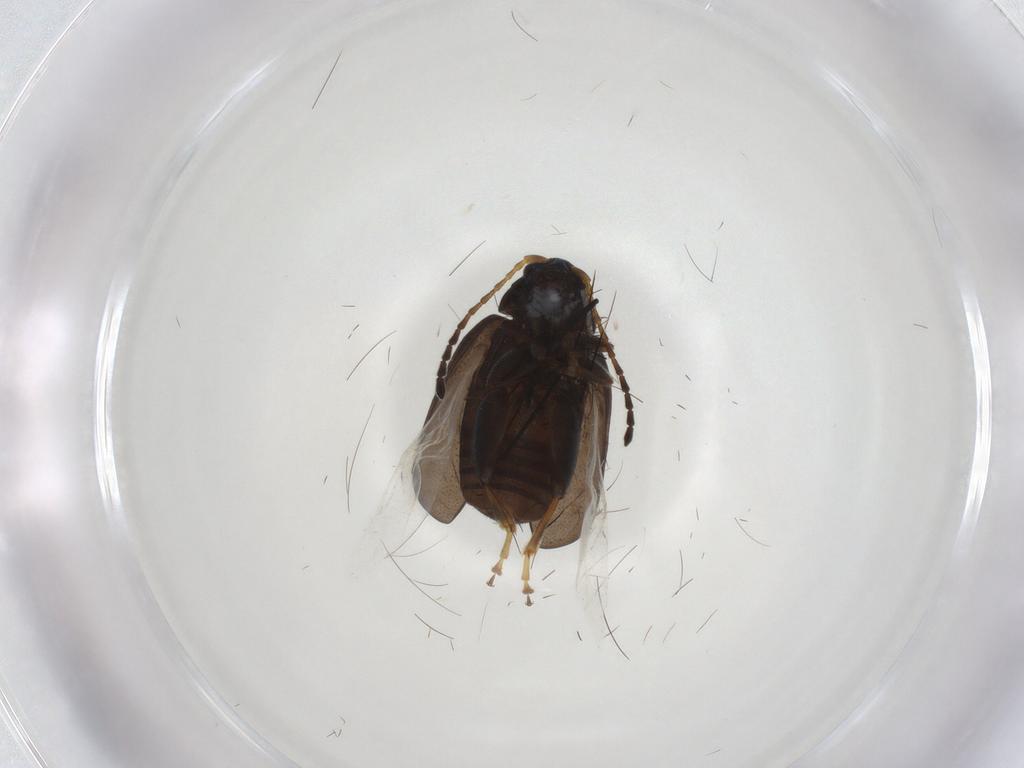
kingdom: Animalia
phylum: Arthropoda
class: Insecta
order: Coleoptera
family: Chrysomelidae
